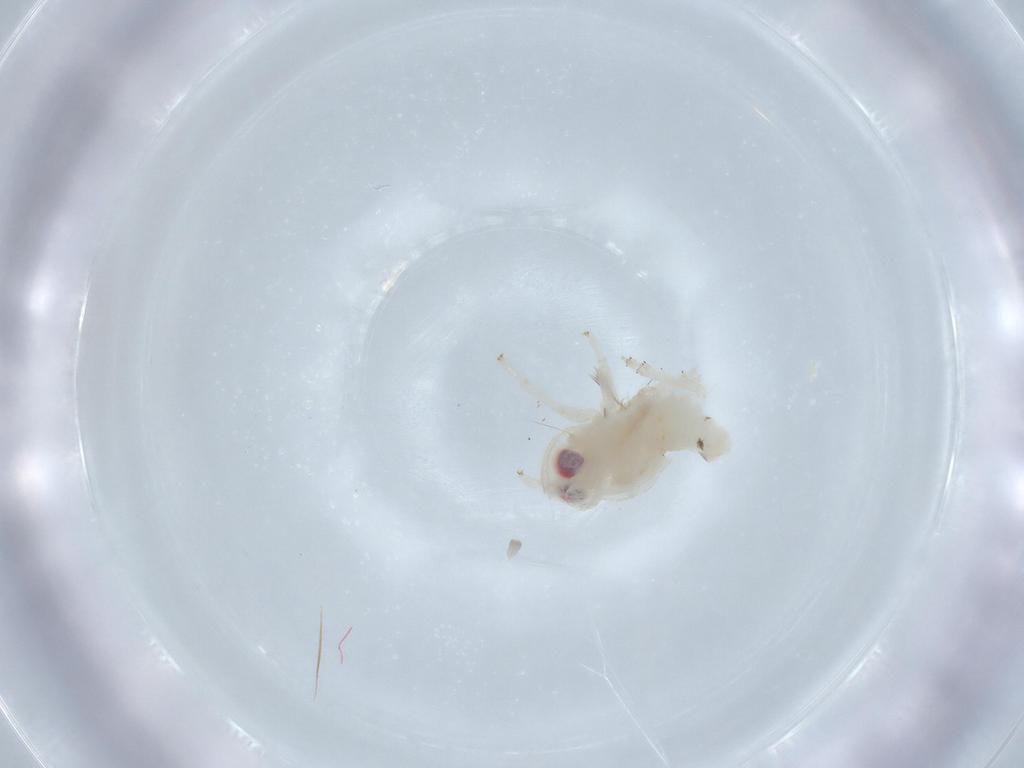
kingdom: Animalia
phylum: Arthropoda
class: Insecta
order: Hemiptera
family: Nogodinidae
